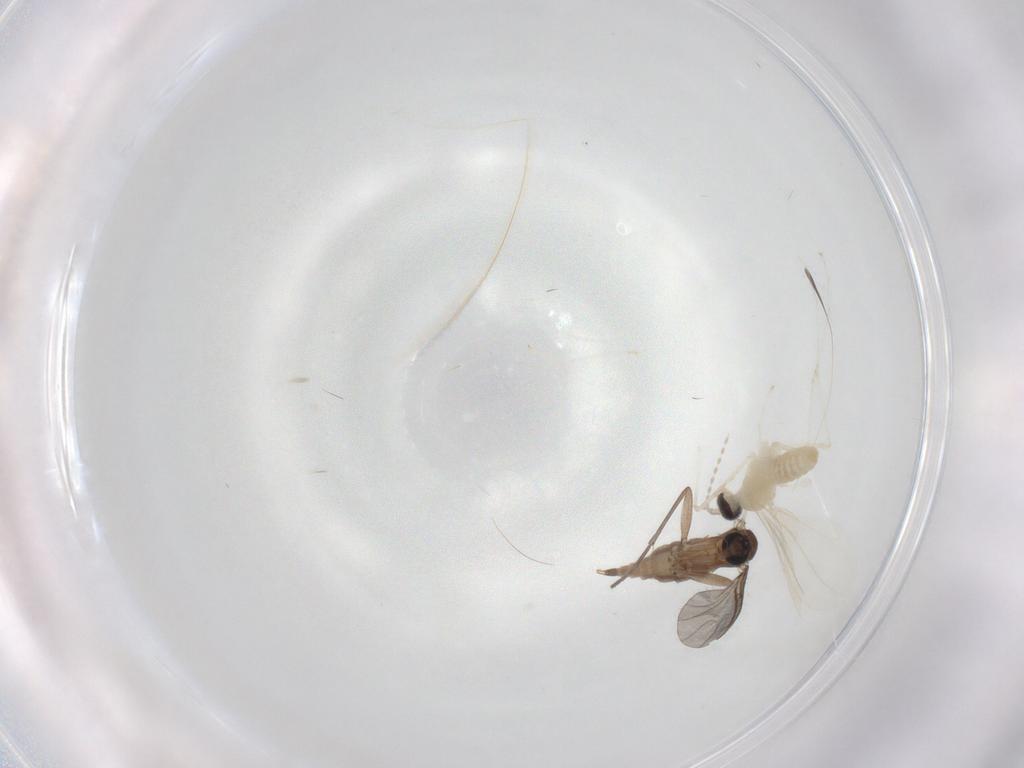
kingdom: Animalia
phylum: Arthropoda
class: Insecta
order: Diptera
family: Sciaridae
